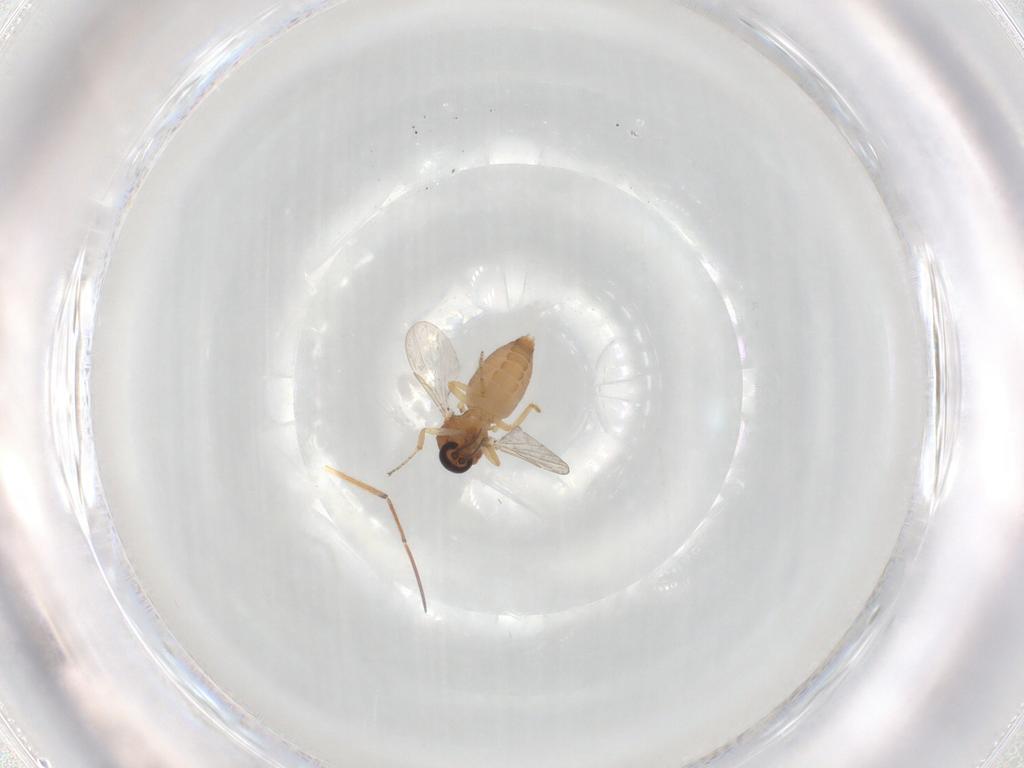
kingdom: Animalia
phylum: Arthropoda
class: Insecta
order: Diptera
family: Ceratopogonidae
